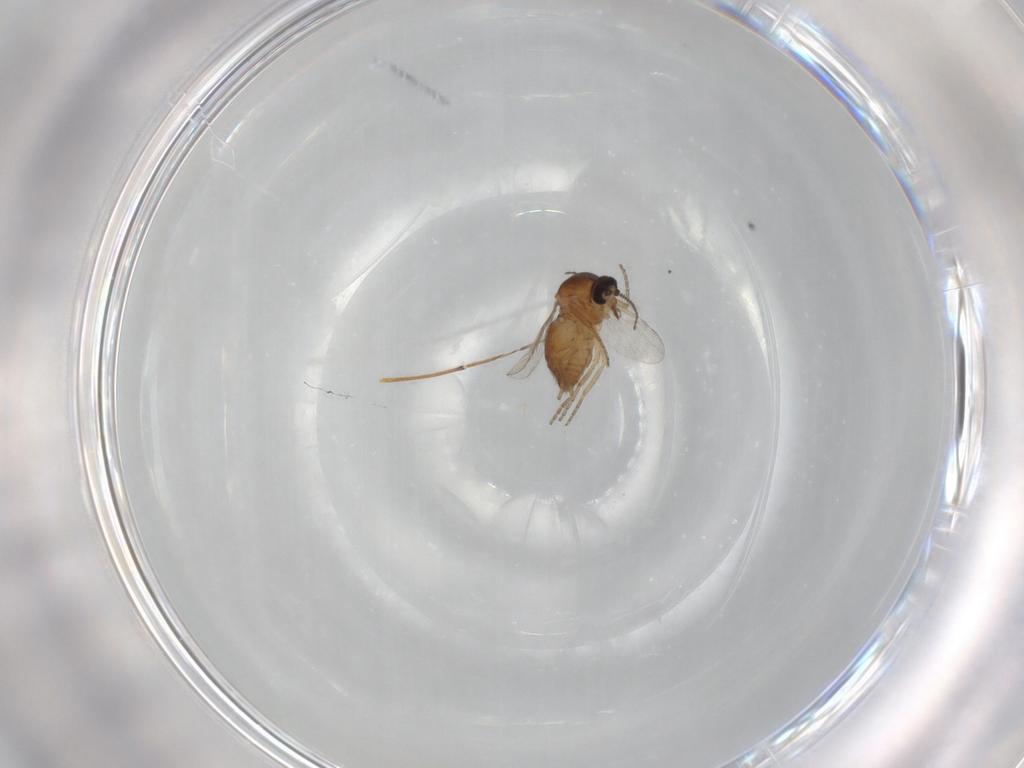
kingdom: Animalia
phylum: Arthropoda
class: Insecta
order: Diptera
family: Ceratopogonidae
